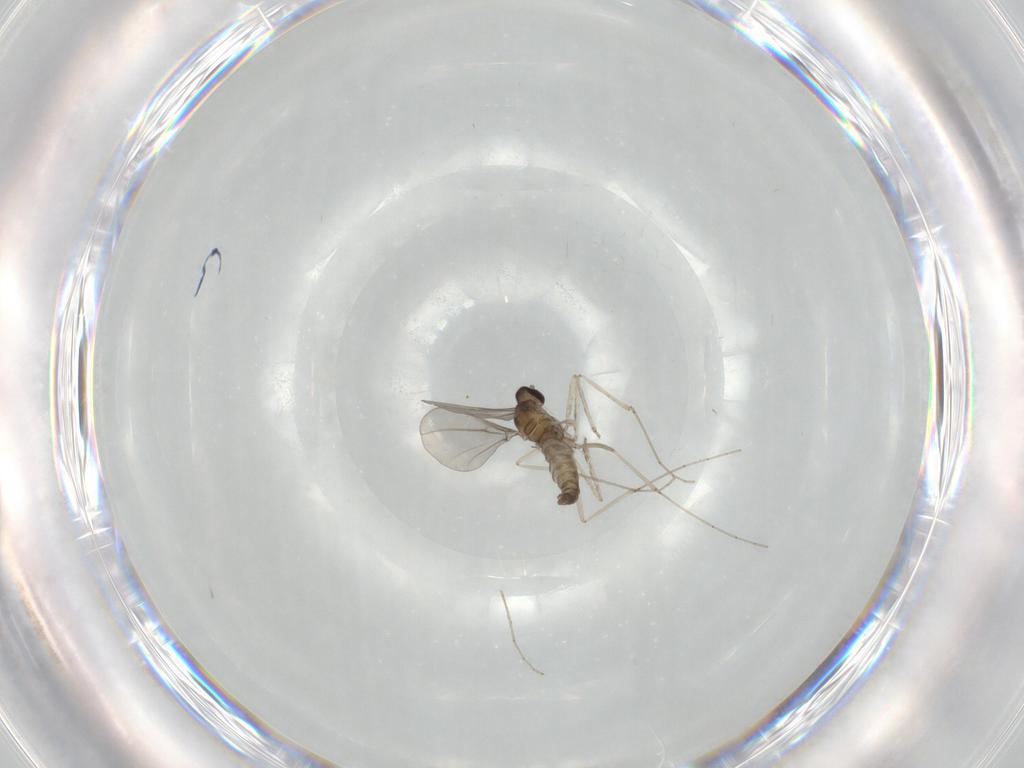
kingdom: Animalia
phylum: Arthropoda
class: Insecta
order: Diptera
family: Cecidomyiidae
